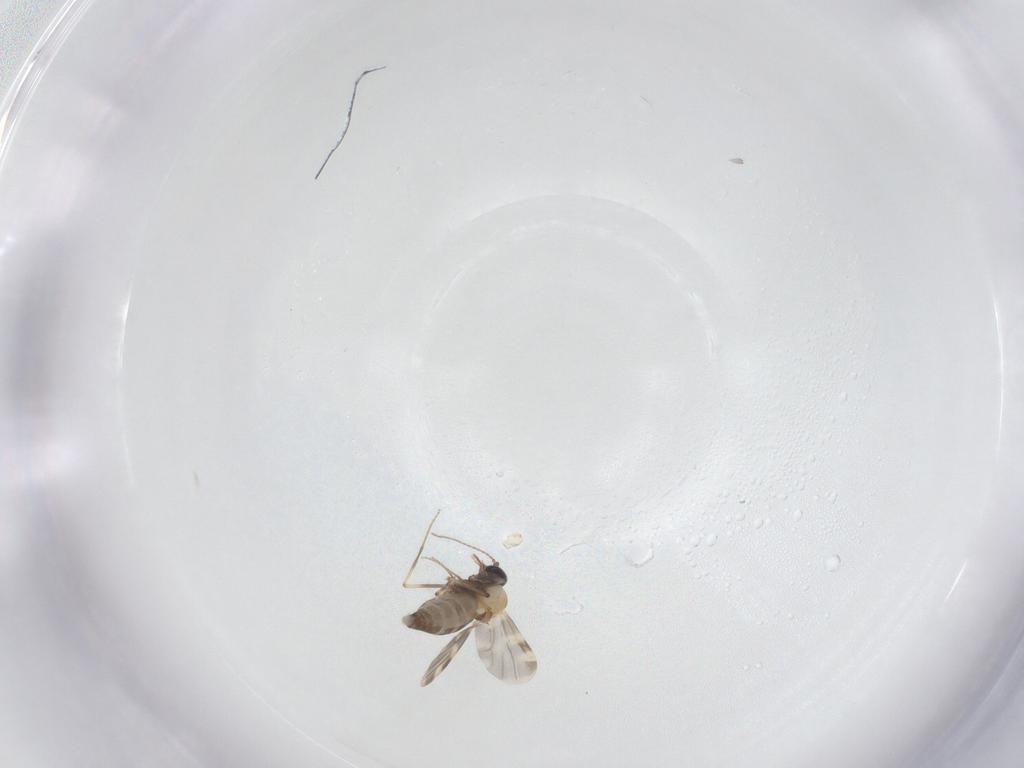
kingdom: Animalia
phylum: Arthropoda
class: Insecta
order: Diptera
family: Ceratopogonidae
